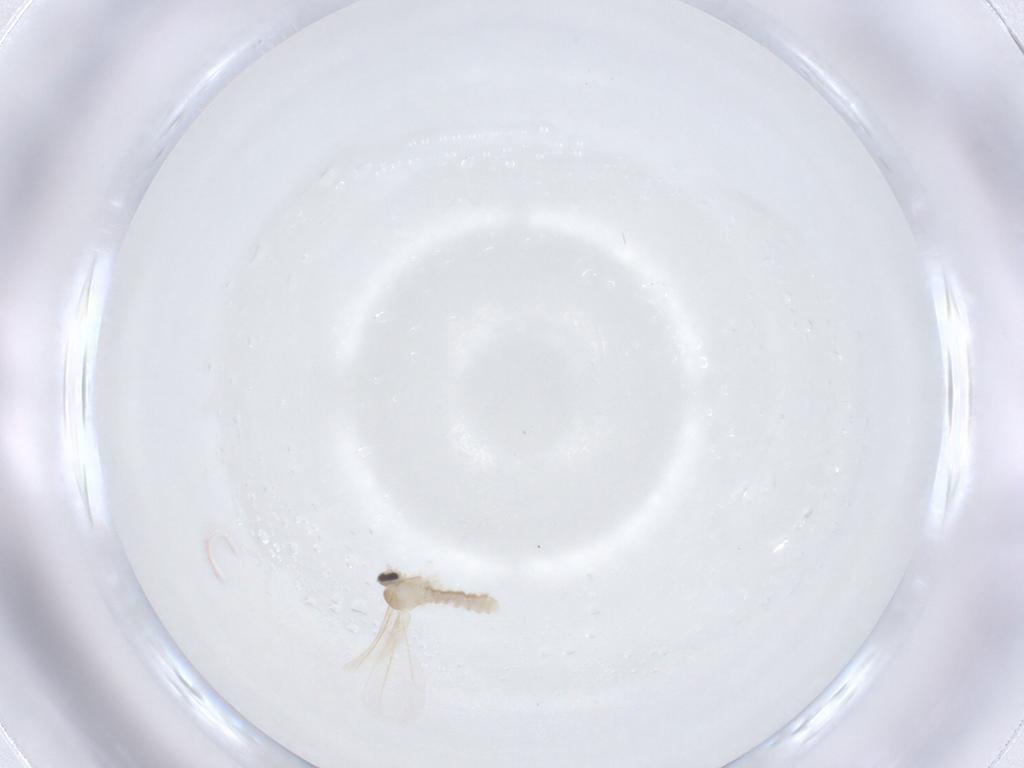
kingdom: Animalia
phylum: Arthropoda
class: Insecta
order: Diptera
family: Cecidomyiidae
